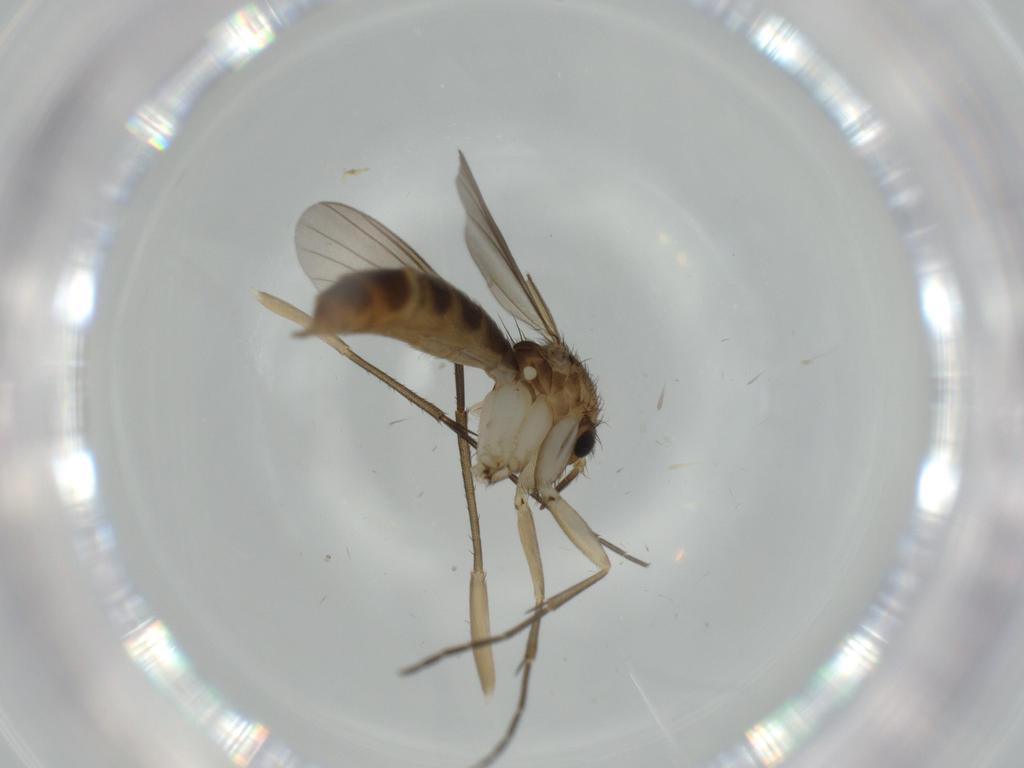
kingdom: Animalia
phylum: Arthropoda
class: Insecta
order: Diptera
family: Mycetophilidae
